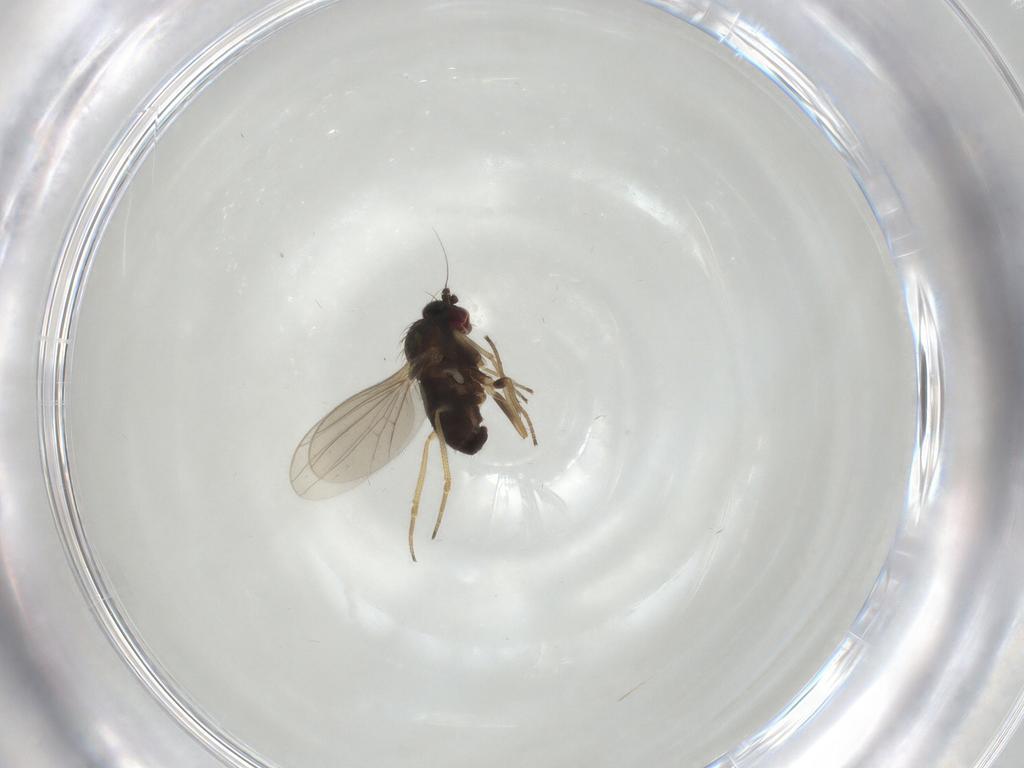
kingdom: Animalia
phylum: Arthropoda
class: Insecta
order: Diptera
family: Dolichopodidae
